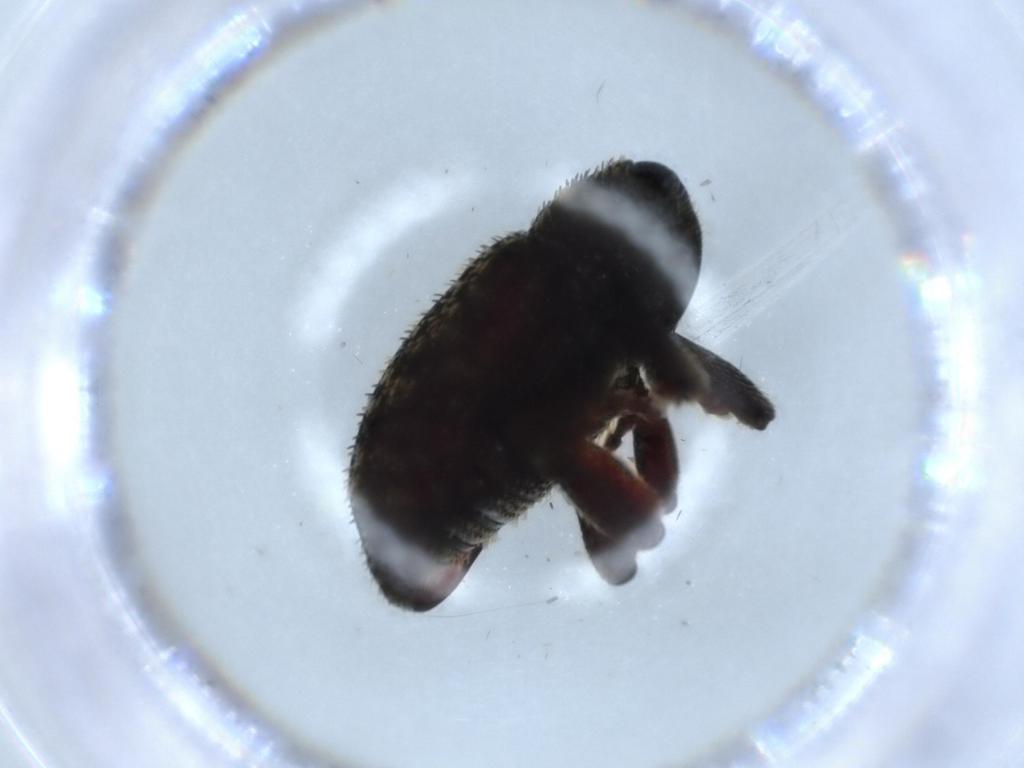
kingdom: Animalia
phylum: Arthropoda
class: Insecta
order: Coleoptera
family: Curculionidae
